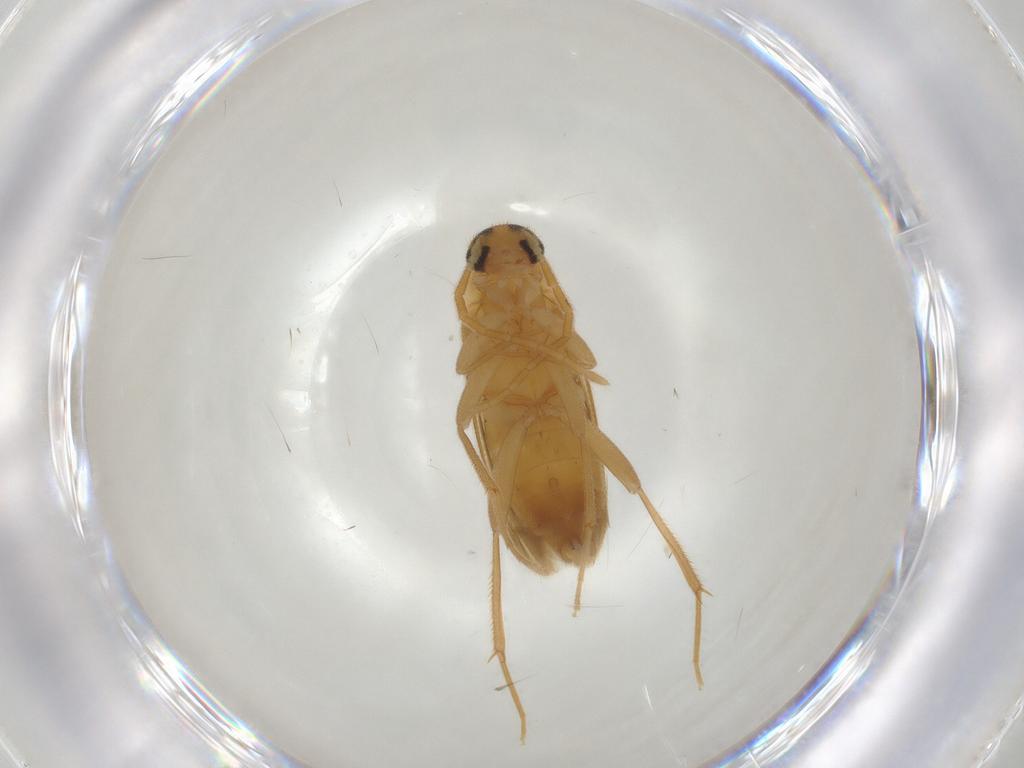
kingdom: Animalia
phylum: Arthropoda
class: Insecta
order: Coleoptera
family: Scraptiidae
